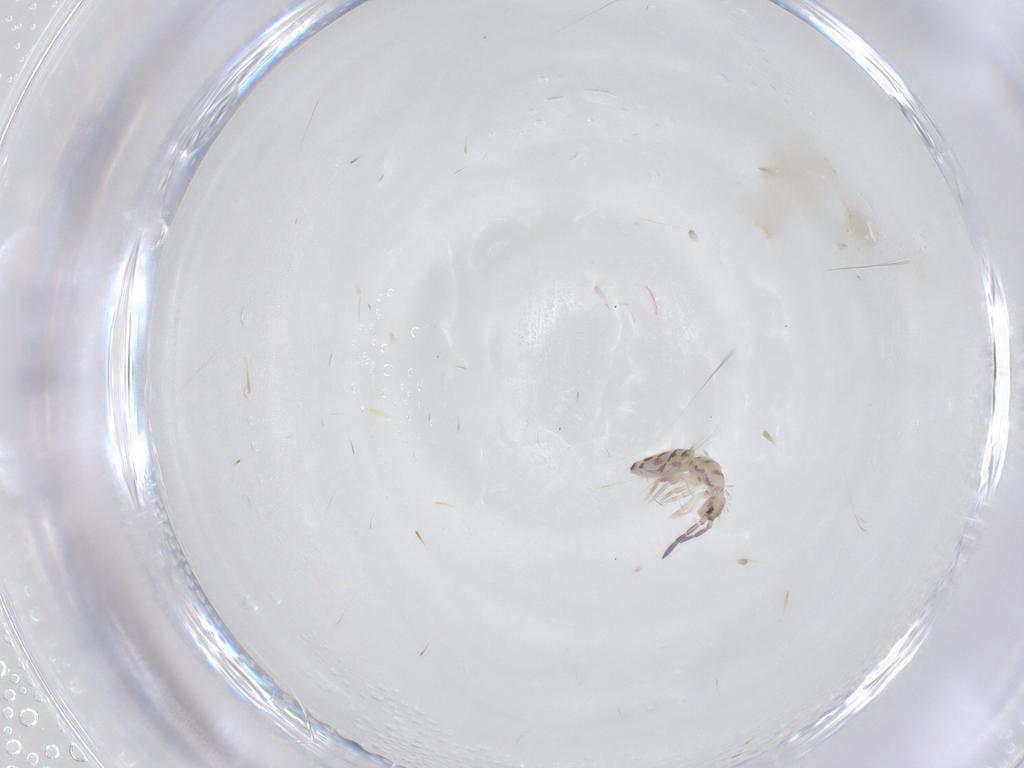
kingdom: Animalia
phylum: Arthropoda
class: Collembola
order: Entomobryomorpha
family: Entomobryidae
